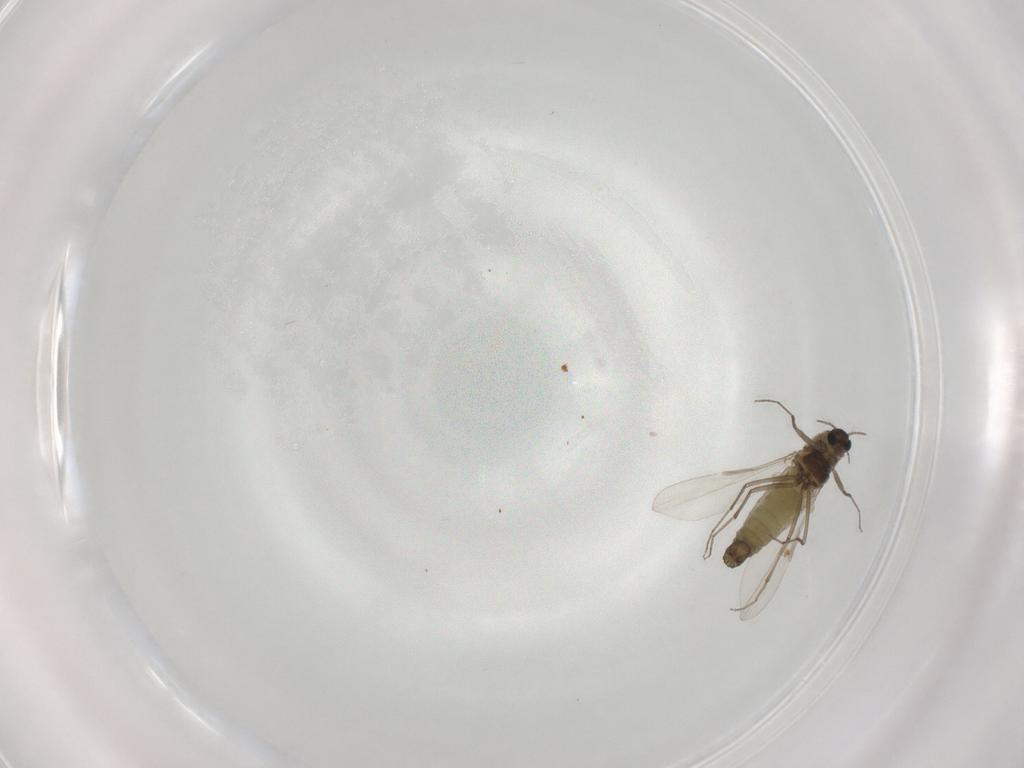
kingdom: Animalia
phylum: Arthropoda
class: Insecta
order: Diptera
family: Chironomidae
